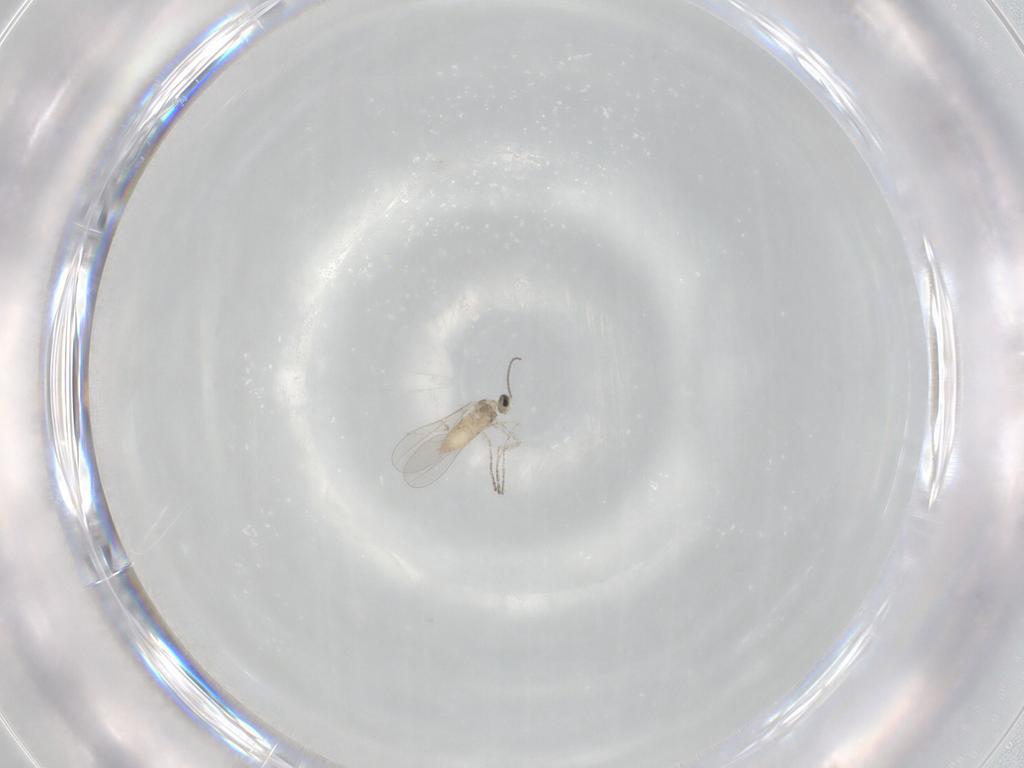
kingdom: Animalia
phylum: Arthropoda
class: Insecta
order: Diptera
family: Cecidomyiidae
